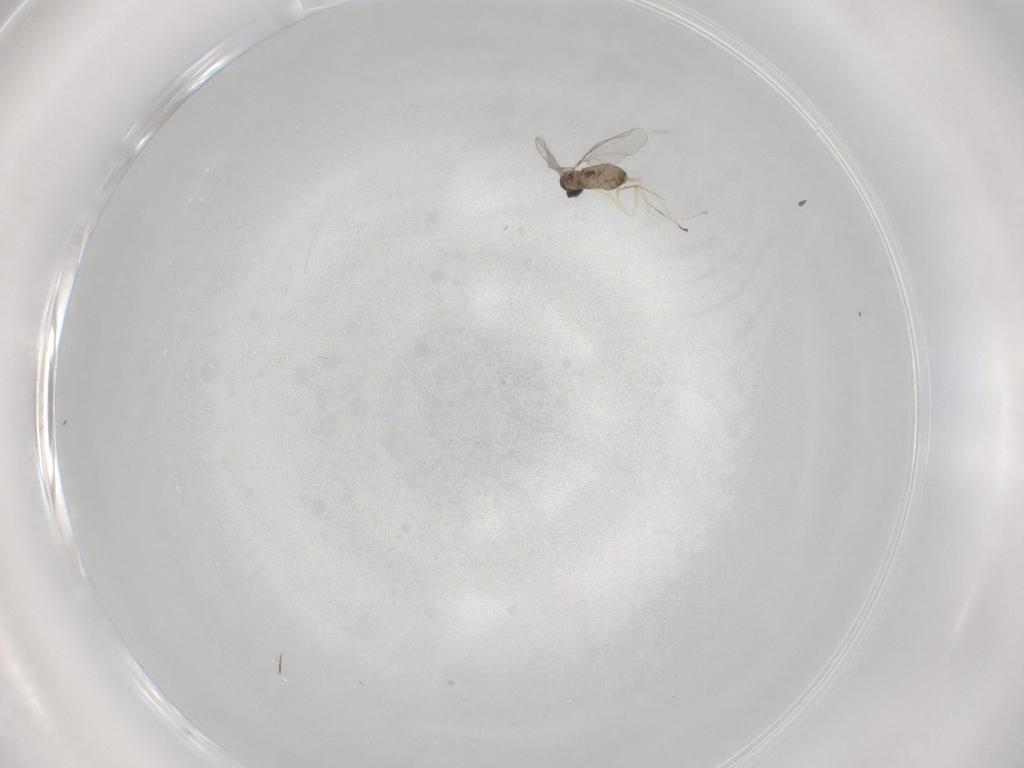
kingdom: Animalia
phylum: Arthropoda
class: Insecta
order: Diptera
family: Cecidomyiidae
